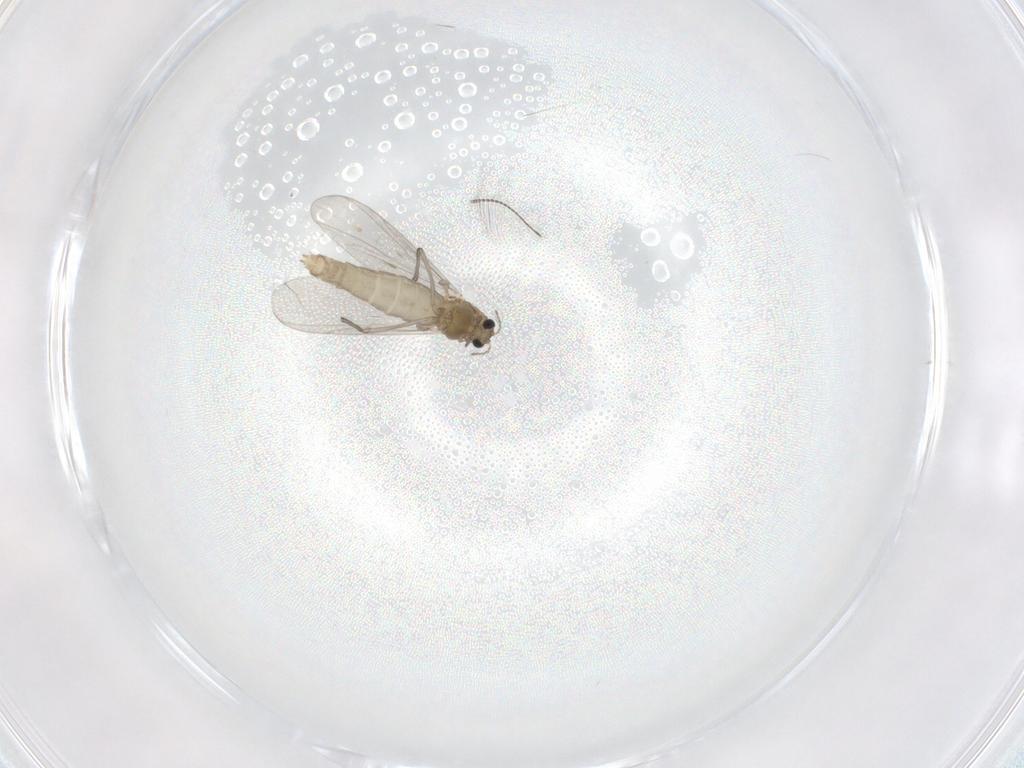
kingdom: Animalia
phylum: Arthropoda
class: Insecta
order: Diptera
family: Chironomidae
